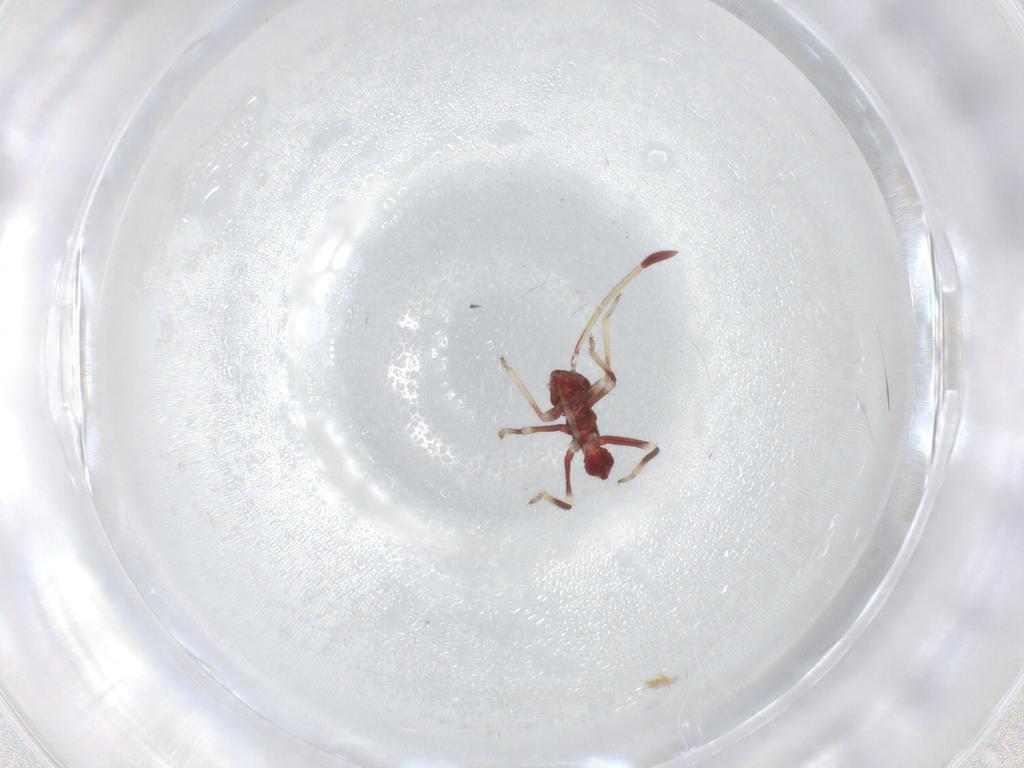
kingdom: Animalia
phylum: Arthropoda
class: Insecta
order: Hemiptera
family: Miridae
